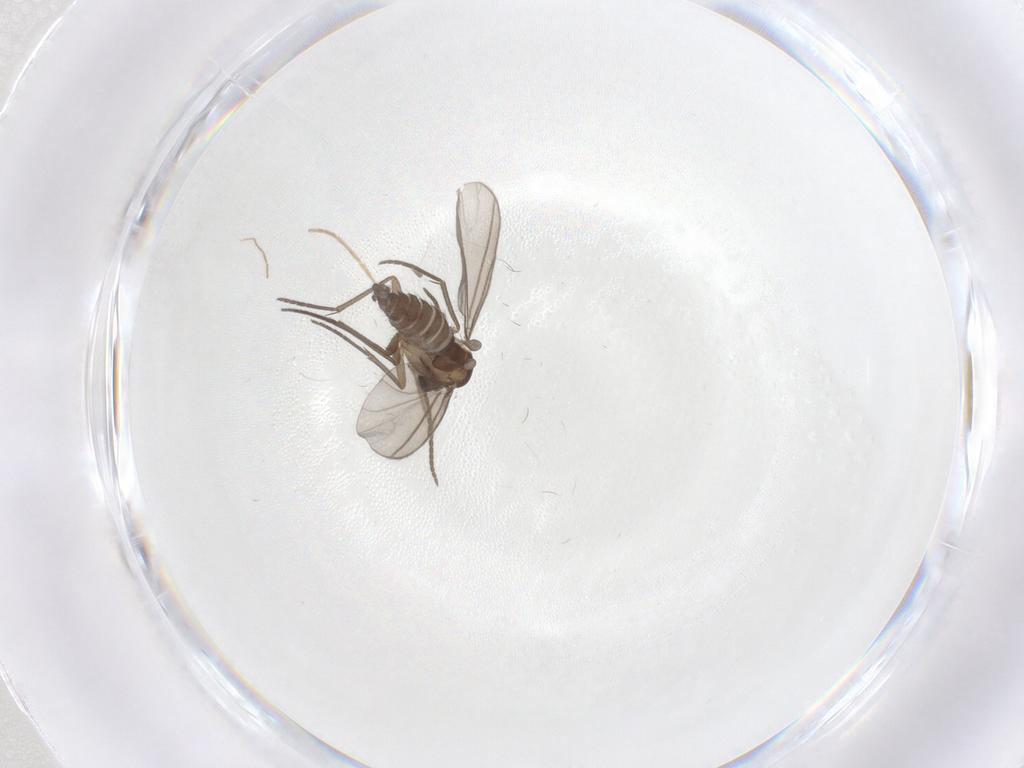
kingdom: Animalia
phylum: Arthropoda
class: Insecta
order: Diptera
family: Sciaridae
